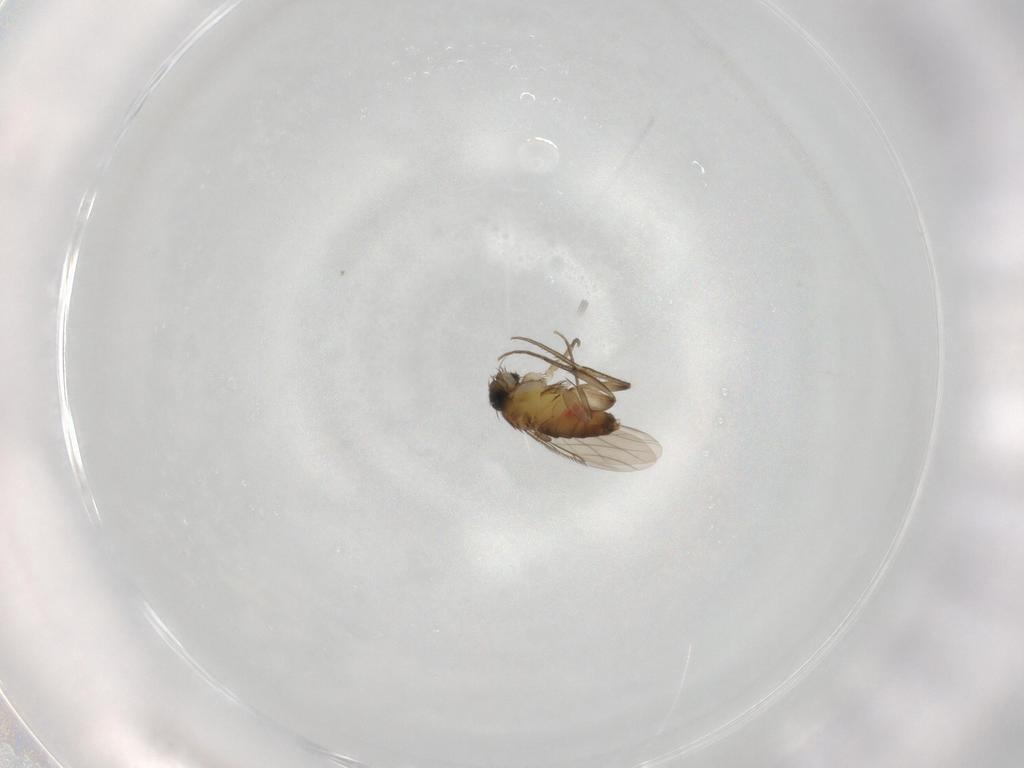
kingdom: Animalia
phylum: Arthropoda
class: Insecta
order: Diptera
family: Phoridae
